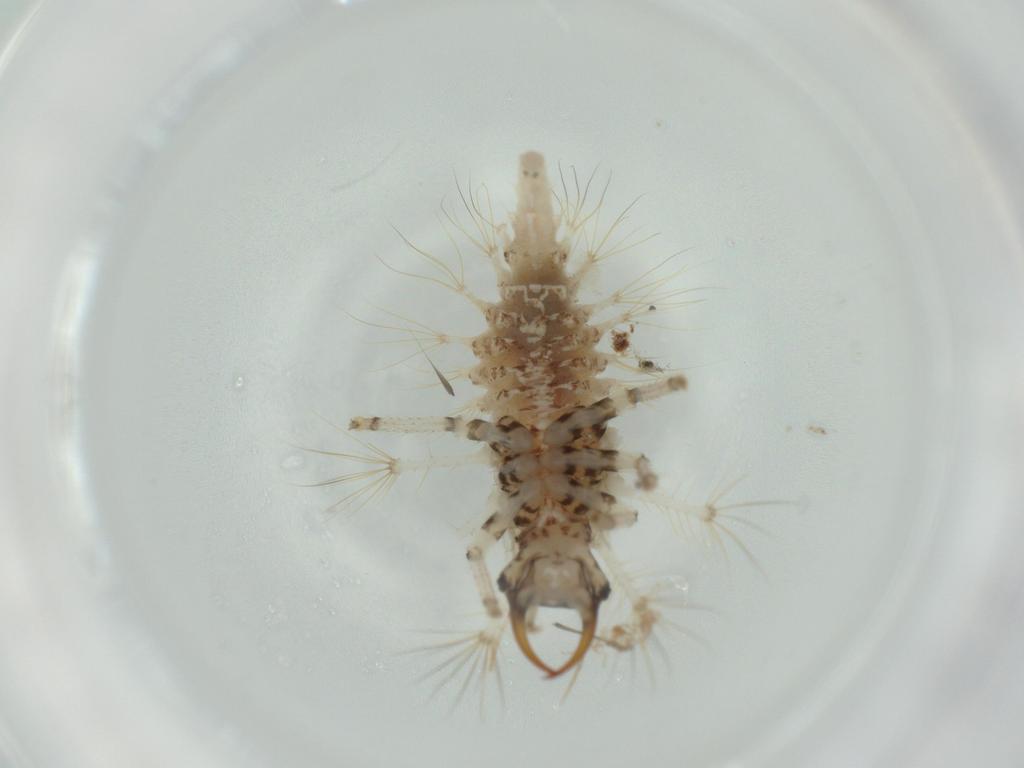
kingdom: Animalia
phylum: Arthropoda
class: Insecta
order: Neuroptera
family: Chrysopidae
